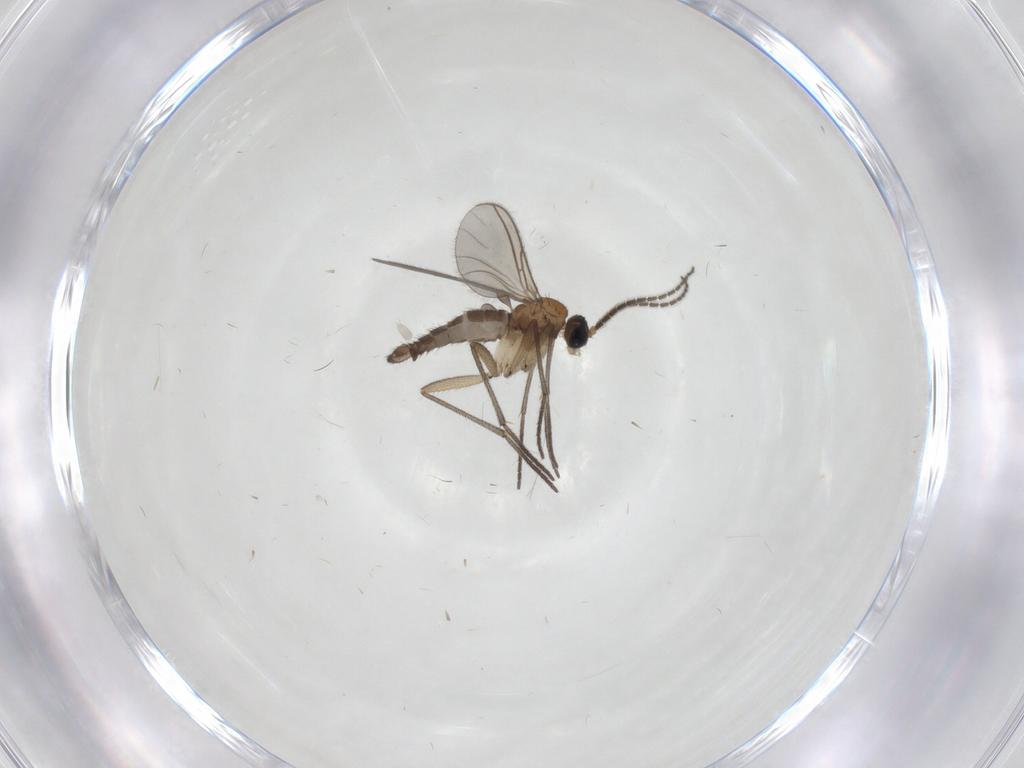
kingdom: Animalia
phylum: Arthropoda
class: Insecta
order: Diptera
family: Sciaridae
